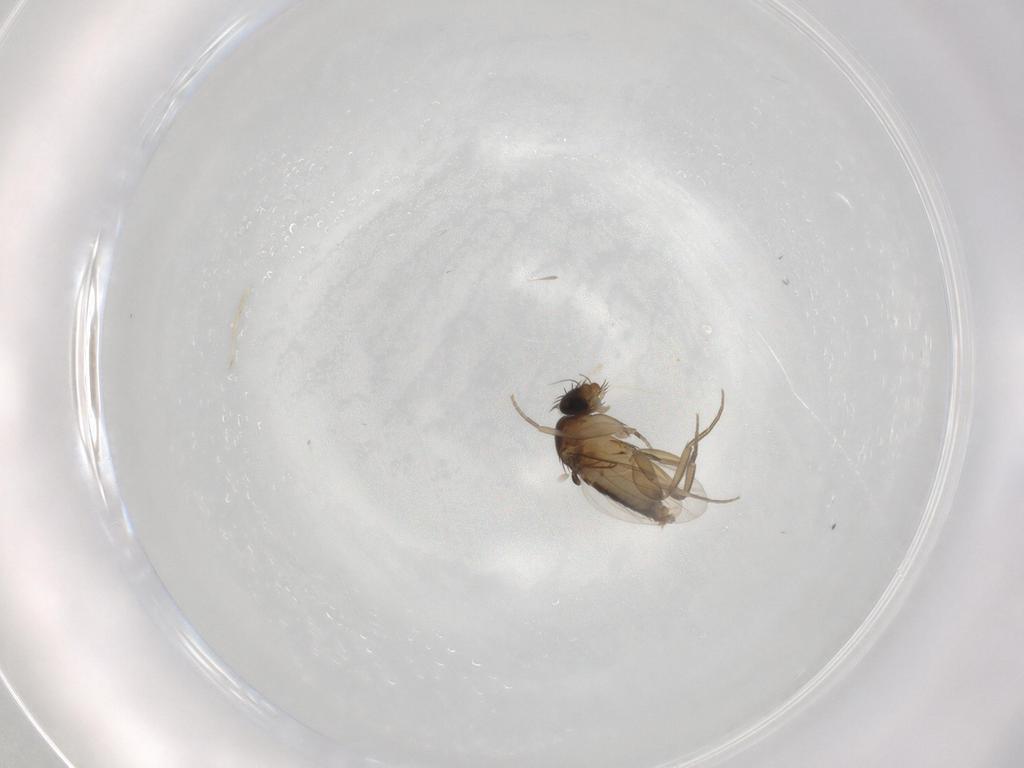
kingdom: Animalia
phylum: Arthropoda
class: Insecta
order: Diptera
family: Phoridae
